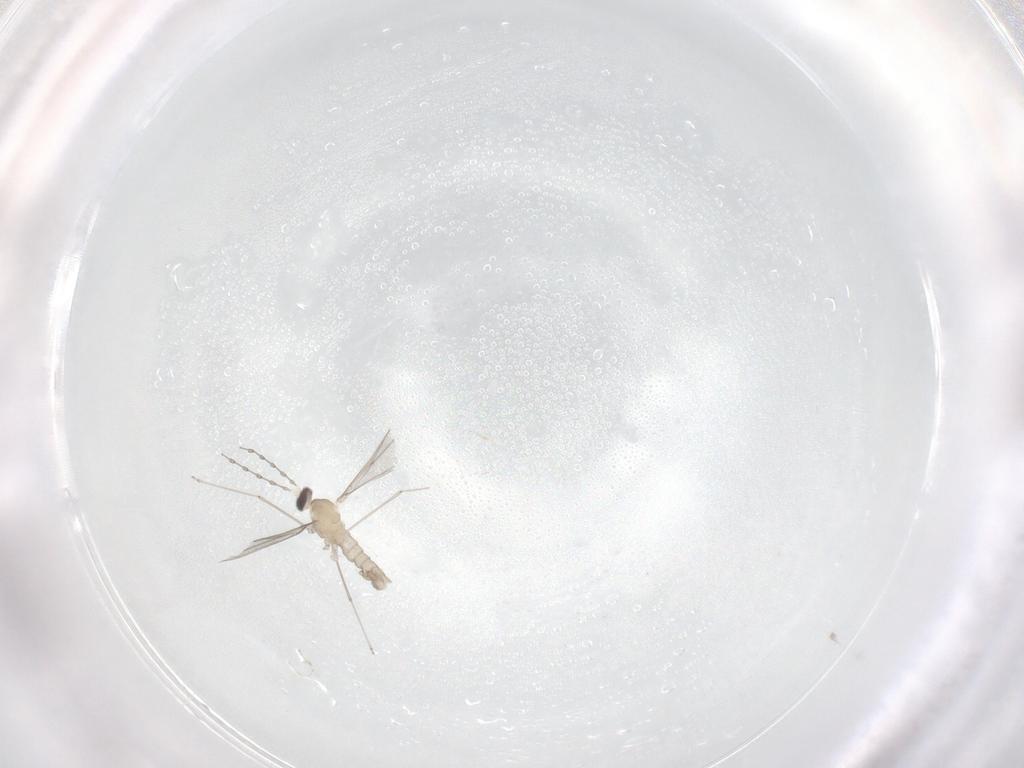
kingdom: Animalia
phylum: Arthropoda
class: Insecta
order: Diptera
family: Cecidomyiidae
